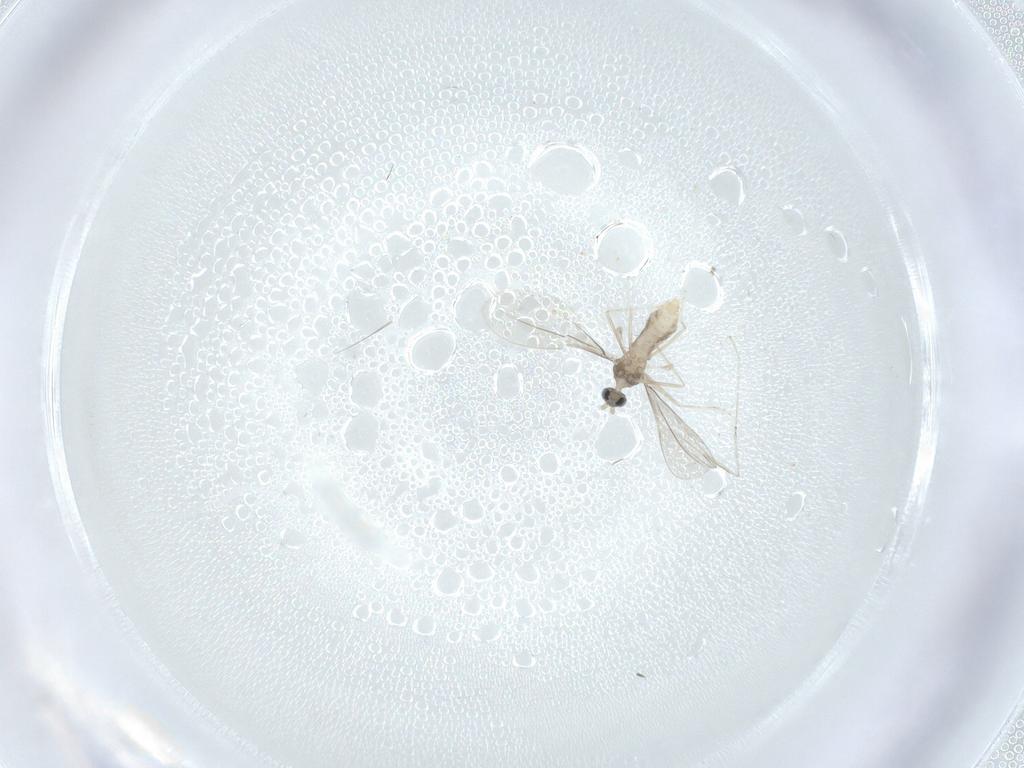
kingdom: Animalia
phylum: Arthropoda
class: Insecta
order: Diptera
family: Cecidomyiidae
